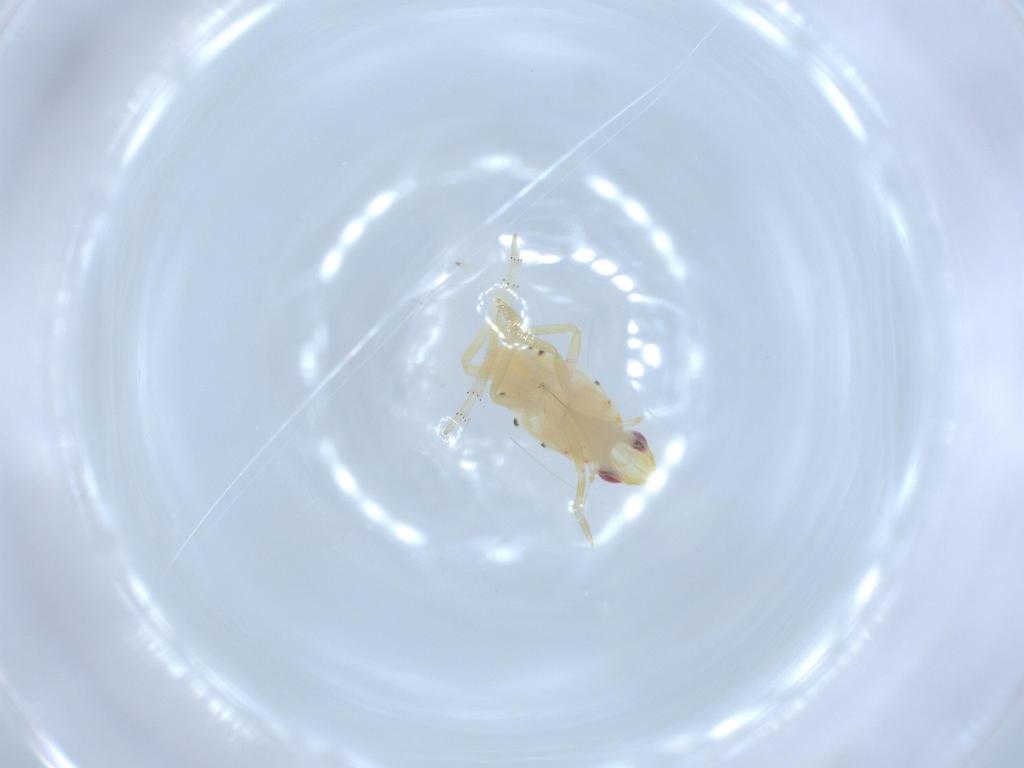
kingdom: Animalia
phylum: Arthropoda
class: Insecta
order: Hemiptera
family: Tropiduchidae
